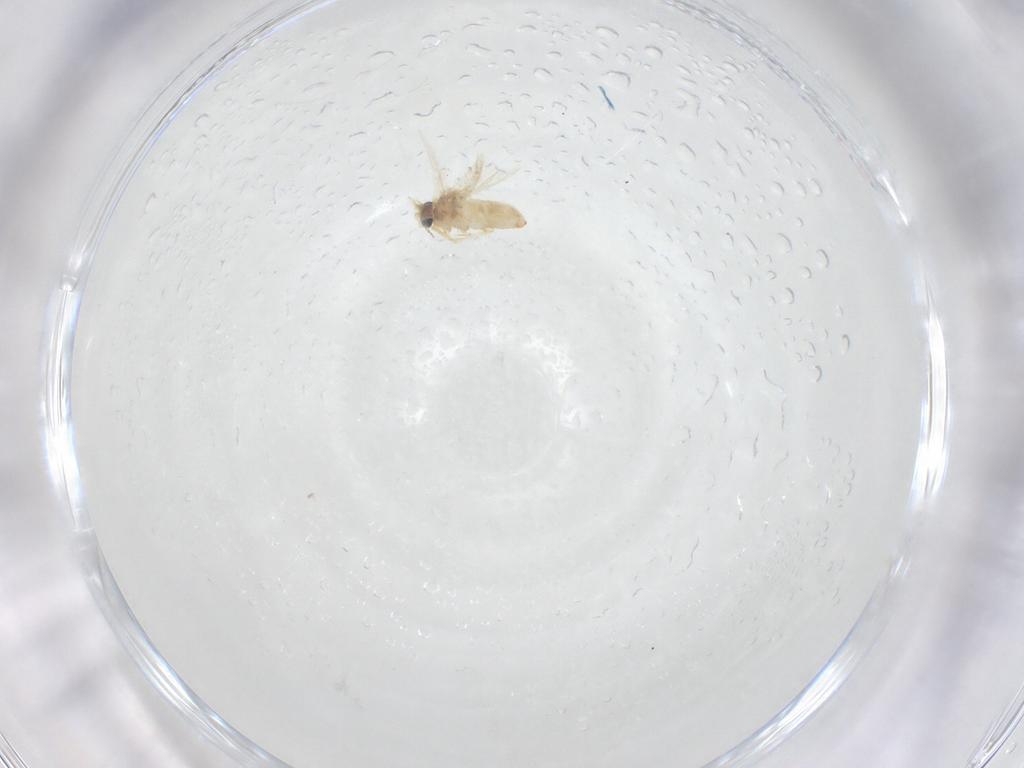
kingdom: Animalia
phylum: Arthropoda
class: Insecta
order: Lepidoptera
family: Crambidae
